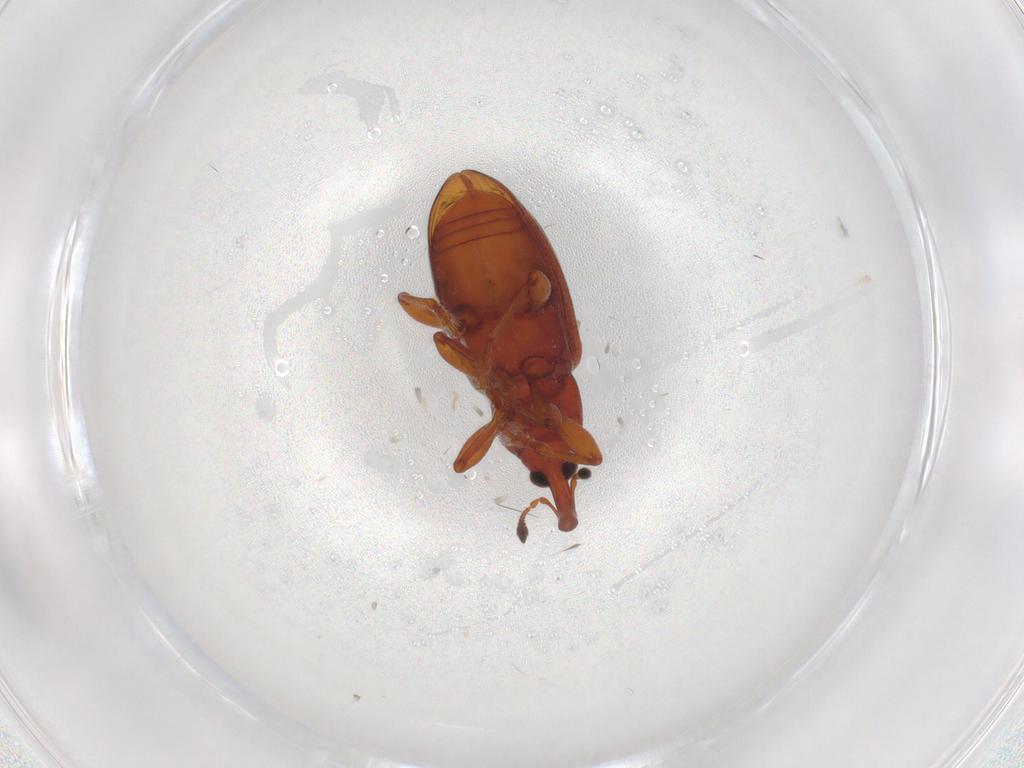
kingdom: Animalia
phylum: Arthropoda
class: Insecta
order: Coleoptera
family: Curculionidae
